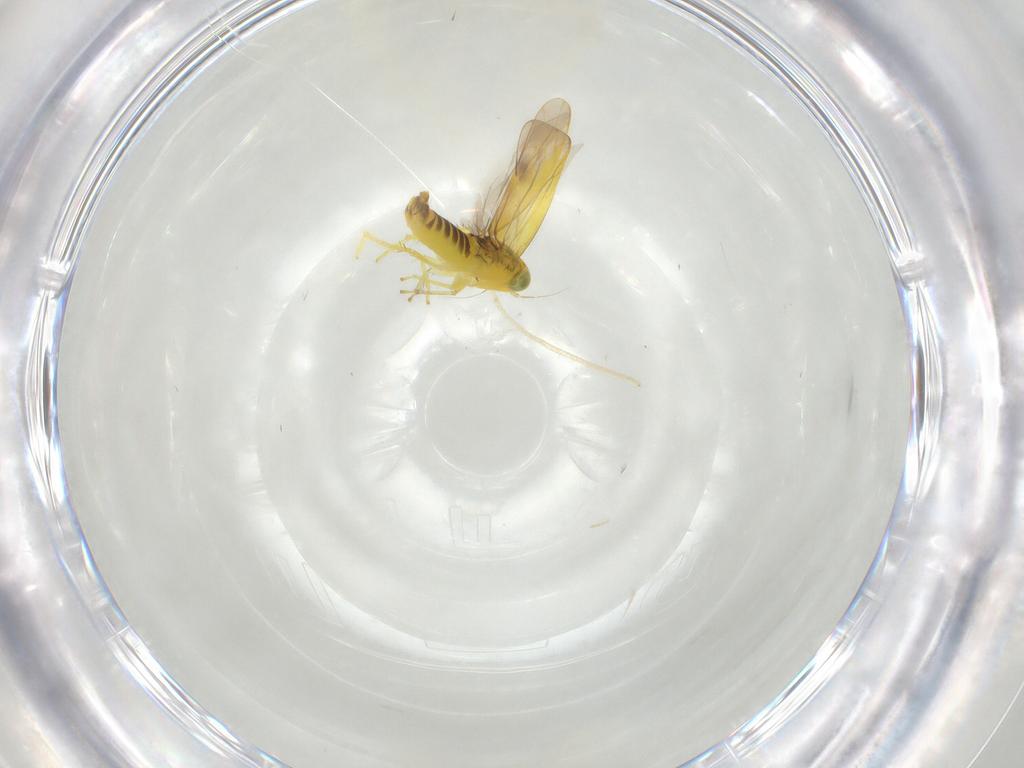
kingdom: Animalia
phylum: Arthropoda
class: Insecta
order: Hemiptera
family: Cicadellidae
